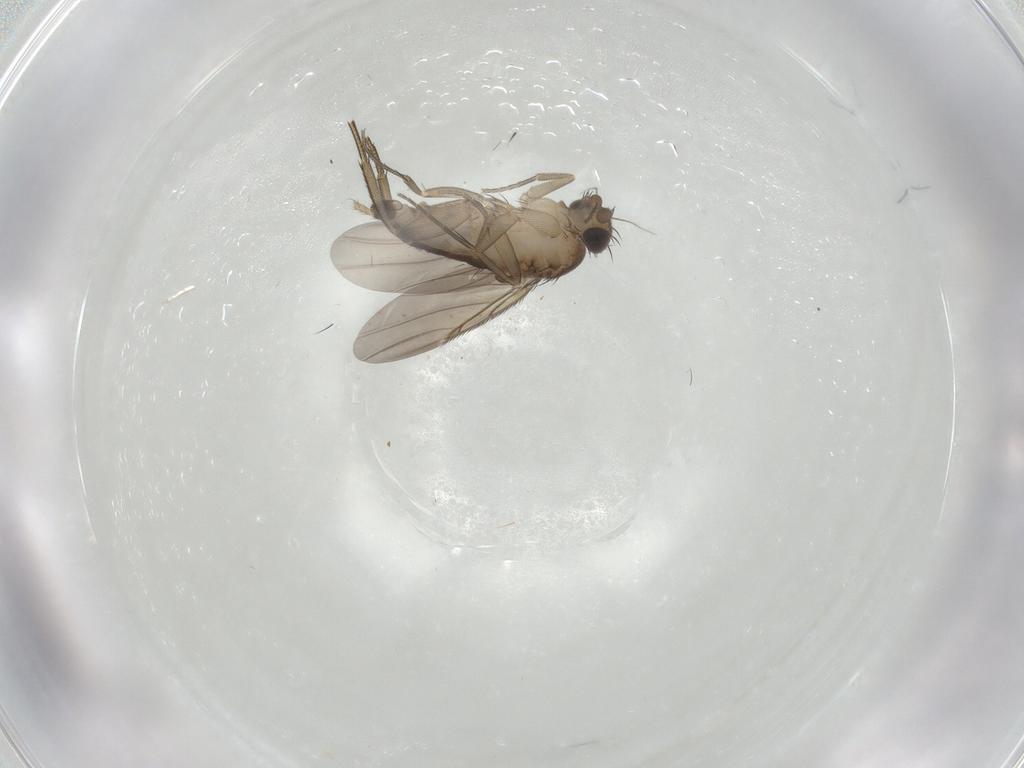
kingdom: Animalia
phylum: Arthropoda
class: Insecta
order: Diptera
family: Phoridae
